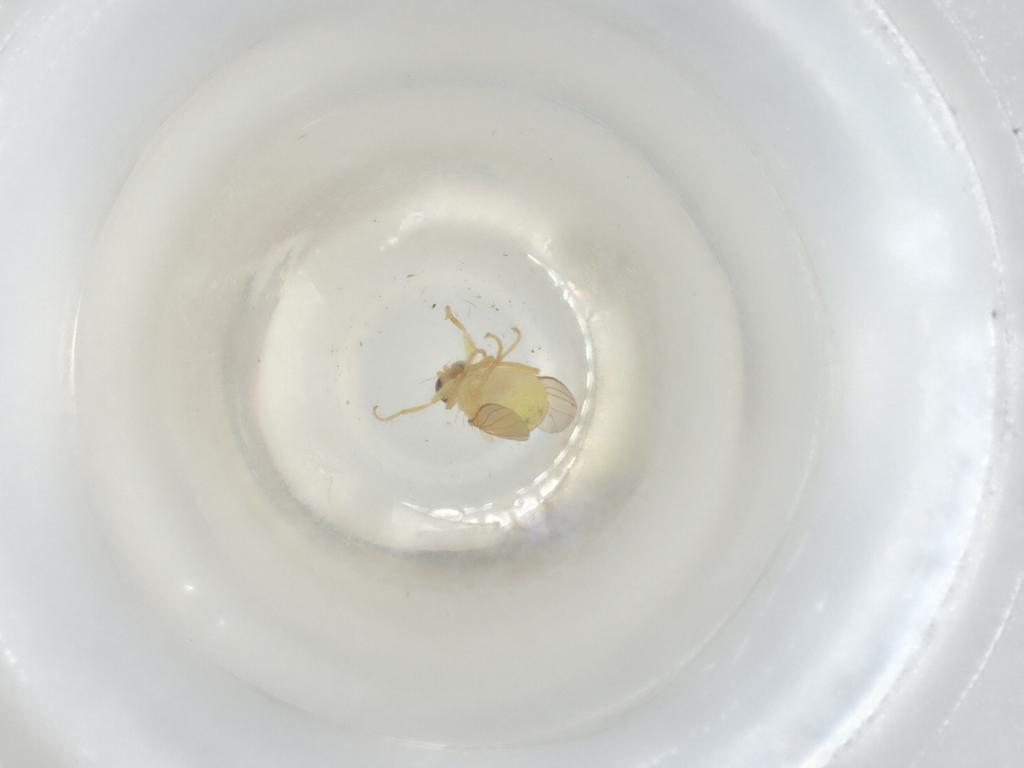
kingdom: Animalia
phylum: Arthropoda
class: Insecta
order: Diptera
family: Chyromyidae
